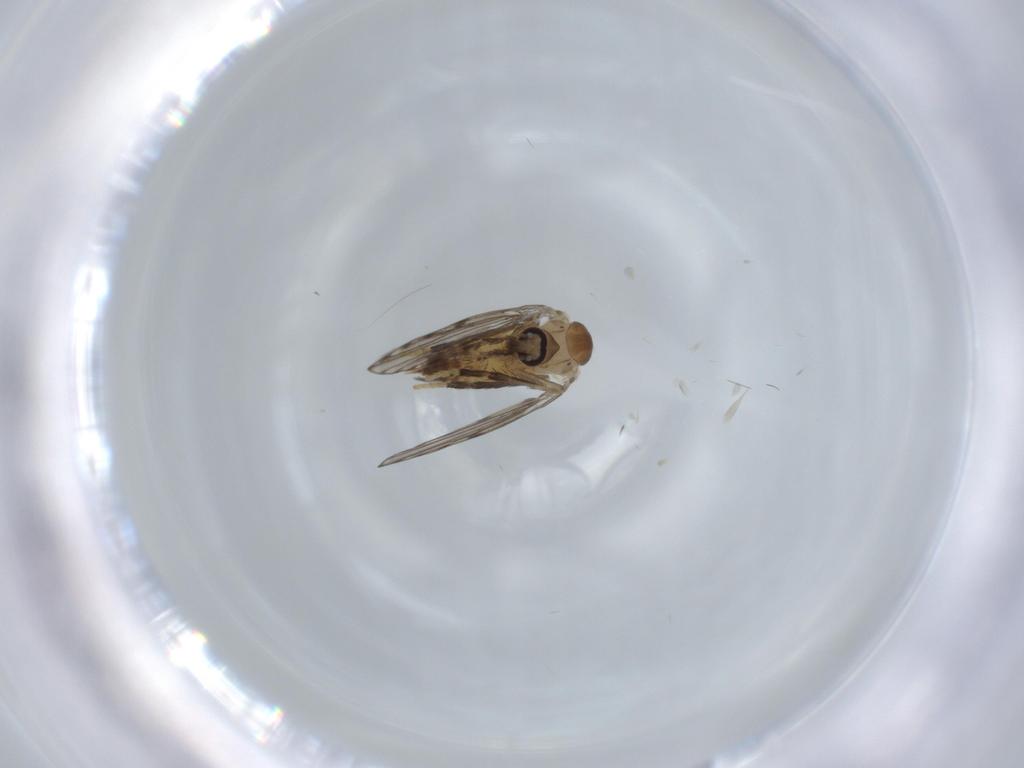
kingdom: Animalia
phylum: Arthropoda
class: Insecta
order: Diptera
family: Psychodidae
